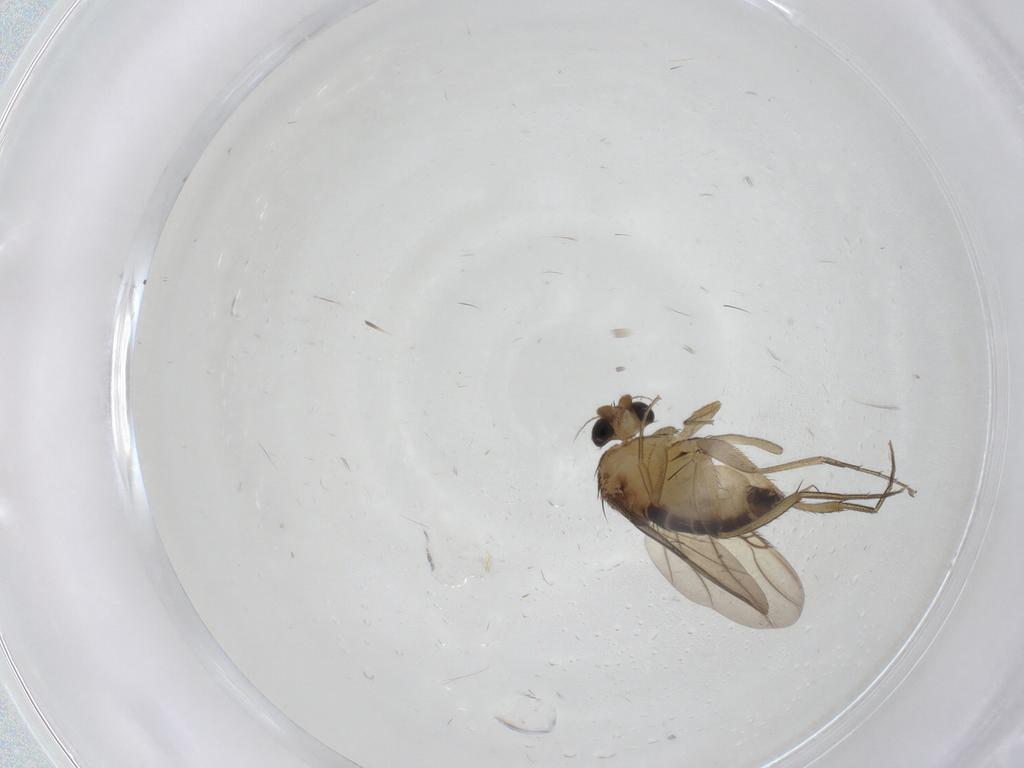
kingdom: Animalia
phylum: Arthropoda
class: Insecta
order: Diptera
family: Phoridae
